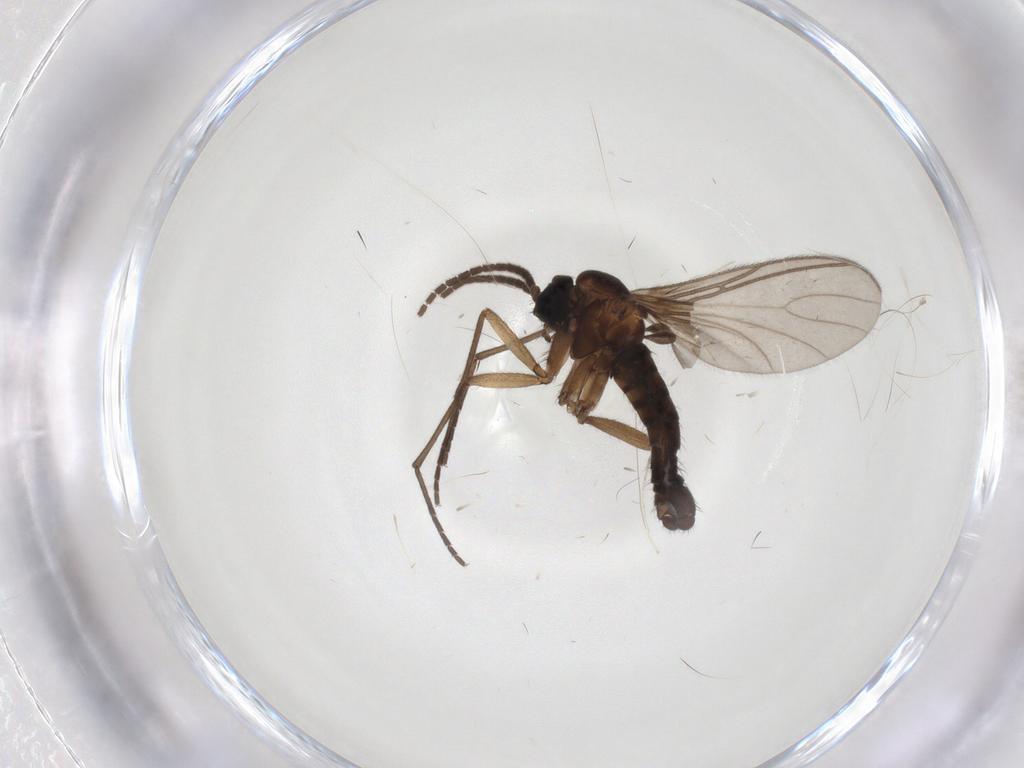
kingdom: Animalia
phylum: Arthropoda
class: Insecta
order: Diptera
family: Sciaridae
